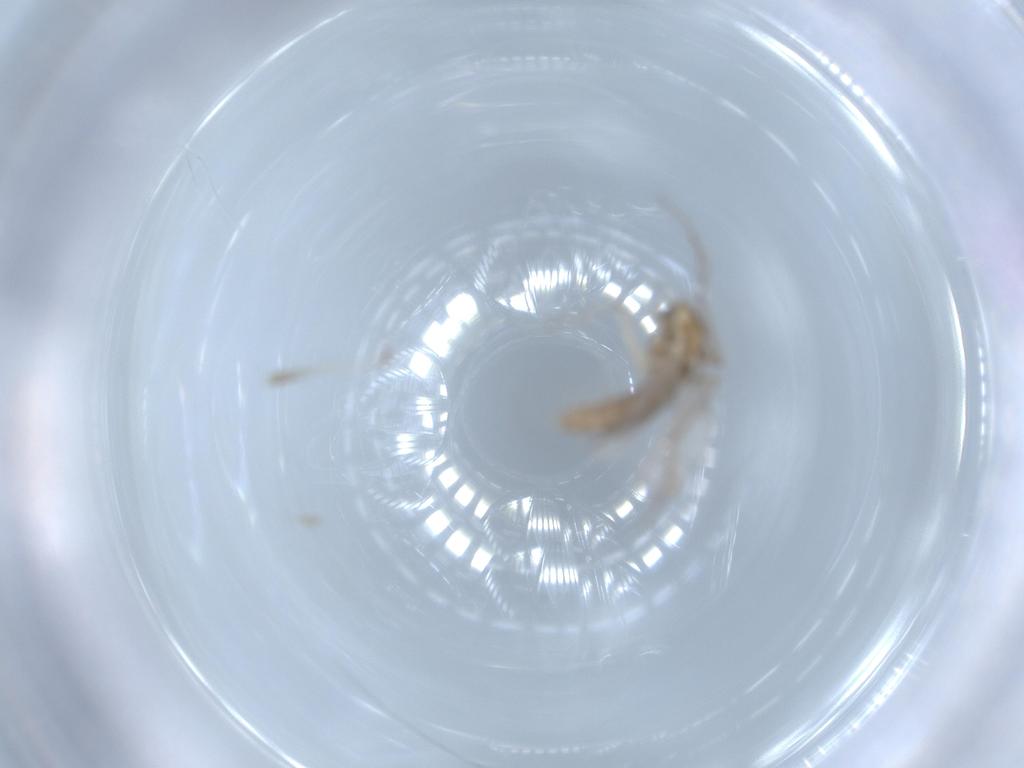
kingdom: Animalia
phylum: Arthropoda
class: Insecta
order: Diptera
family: Chironomidae
